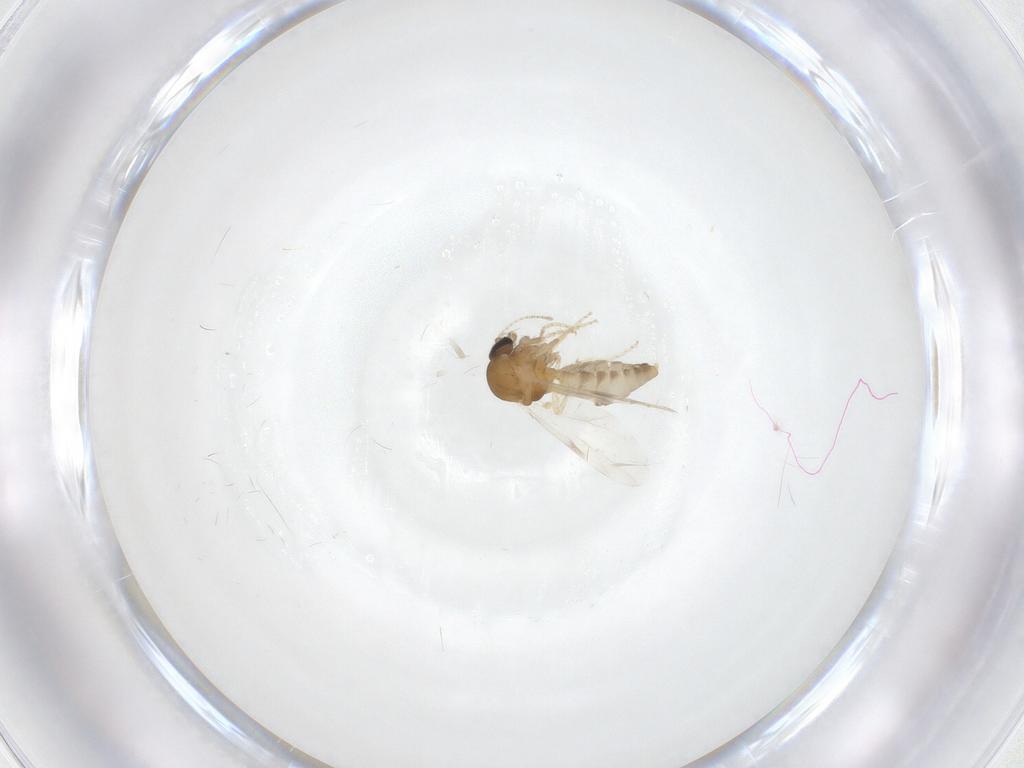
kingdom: Animalia
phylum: Arthropoda
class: Insecta
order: Diptera
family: Ceratopogonidae
